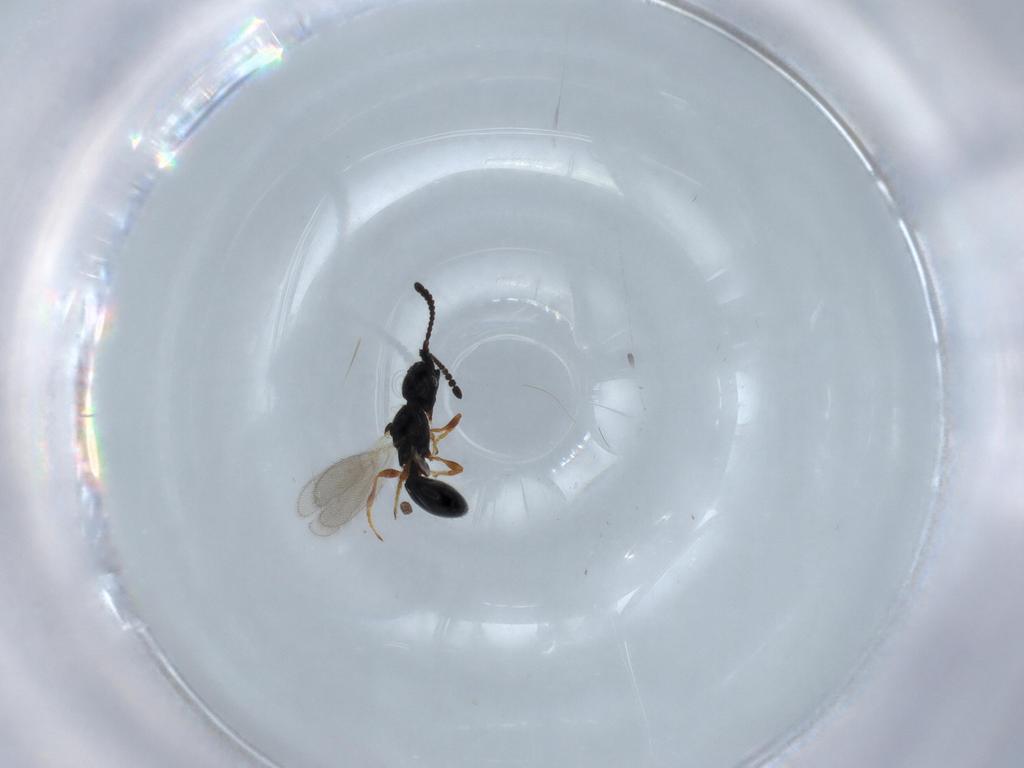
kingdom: Animalia
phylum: Arthropoda
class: Insecta
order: Hymenoptera
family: Diapriidae
